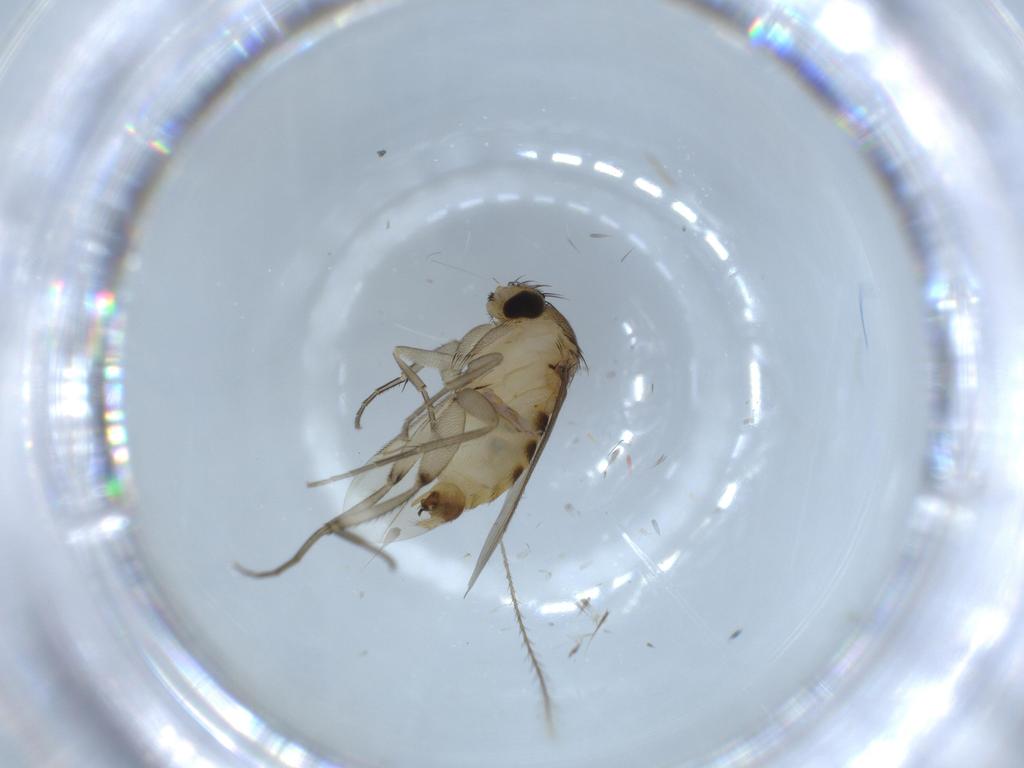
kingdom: Animalia
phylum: Arthropoda
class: Insecta
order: Diptera
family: Phoridae
